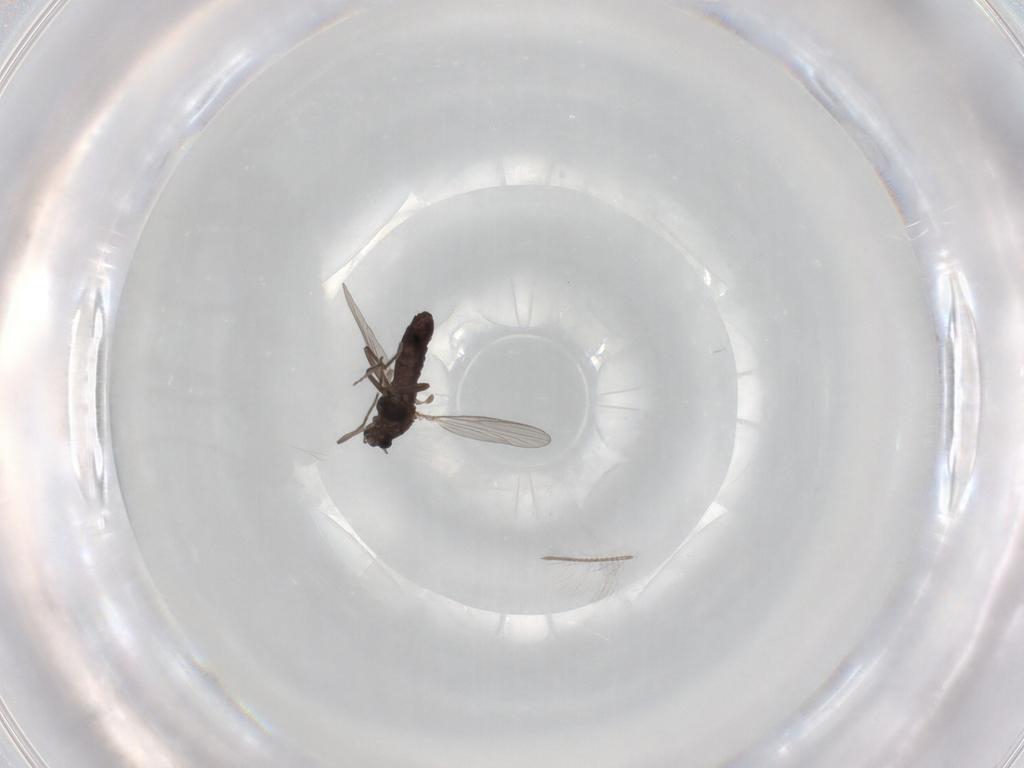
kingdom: Animalia
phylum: Arthropoda
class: Insecta
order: Diptera
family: Chironomidae
